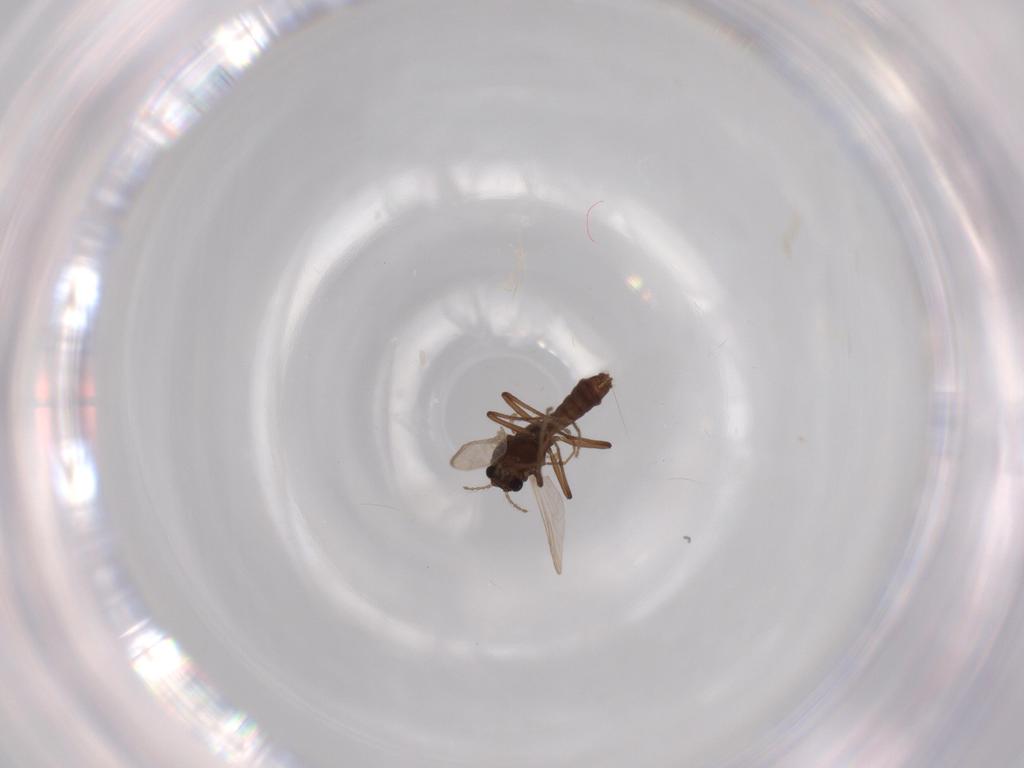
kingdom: Animalia
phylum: Arthropoda
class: Insecta
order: Diptera
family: Chironomidae
